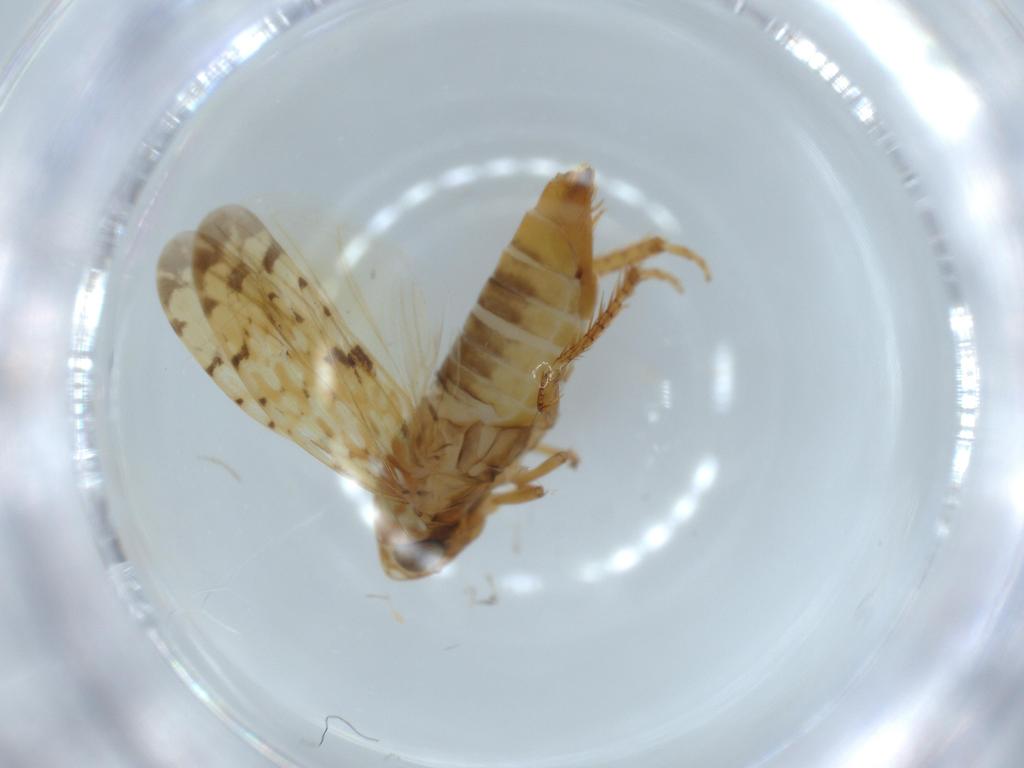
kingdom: Animalia
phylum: Arthropoda
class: Insecta
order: Hemiptera
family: Cicadellidae
